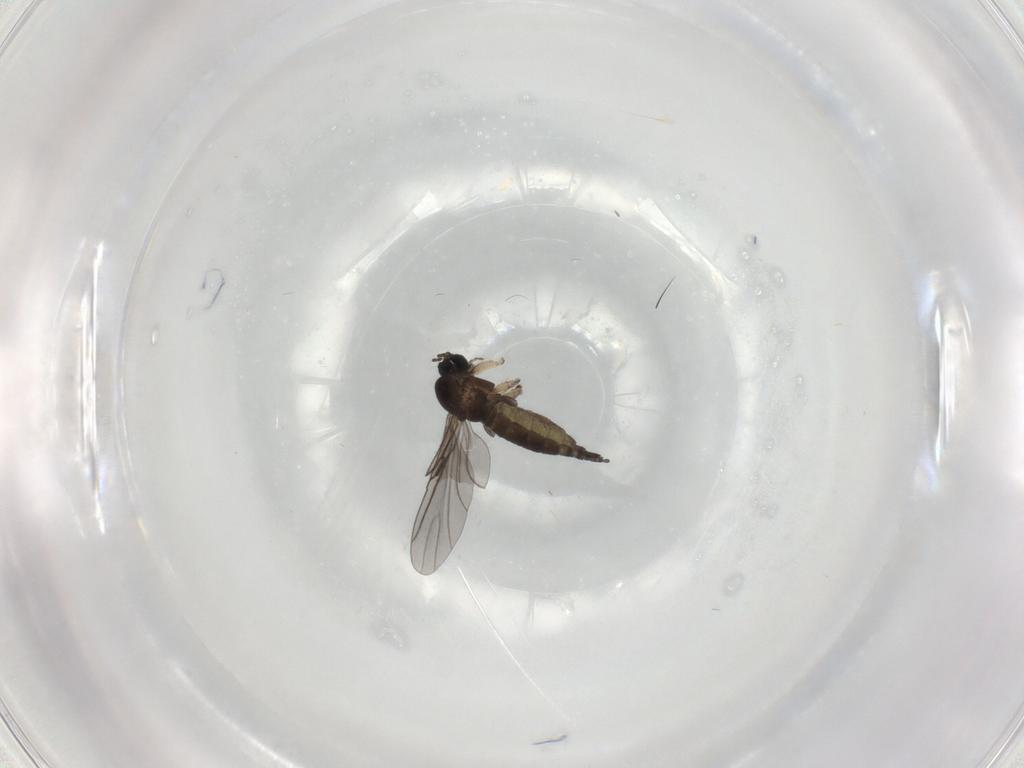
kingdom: Animalia
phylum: Arthropoda
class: Insecta
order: Diptera
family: Sciaridae
